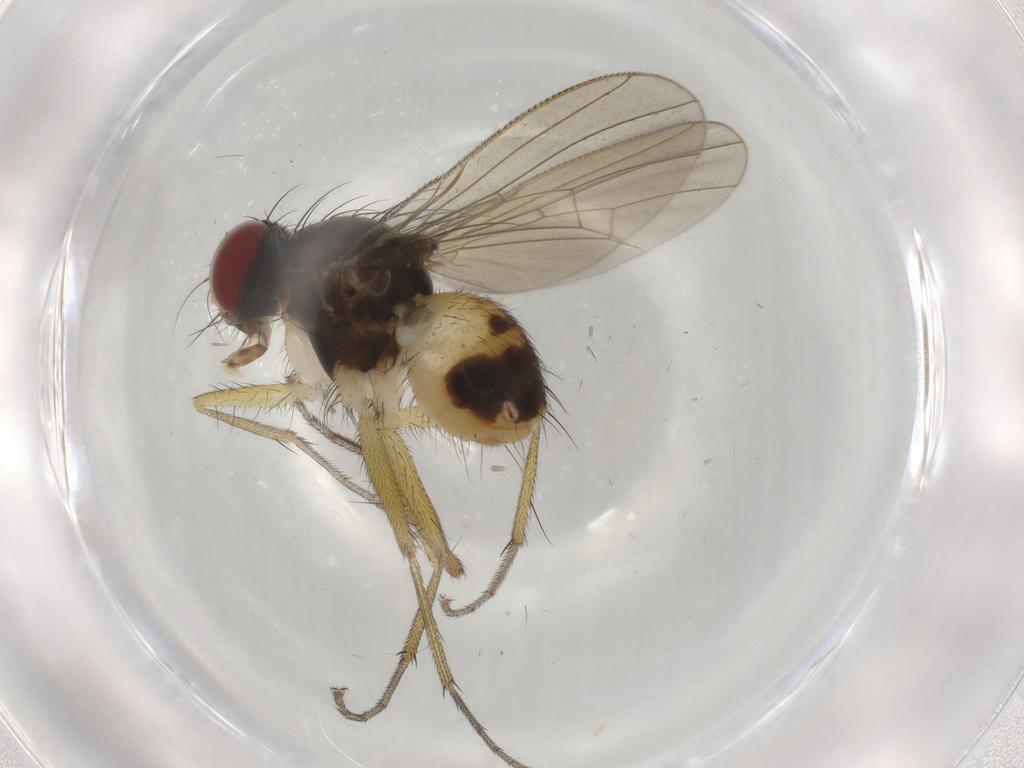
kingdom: Animalia
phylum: Arthropoda
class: Insecta
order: Diptera
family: Muscidae
